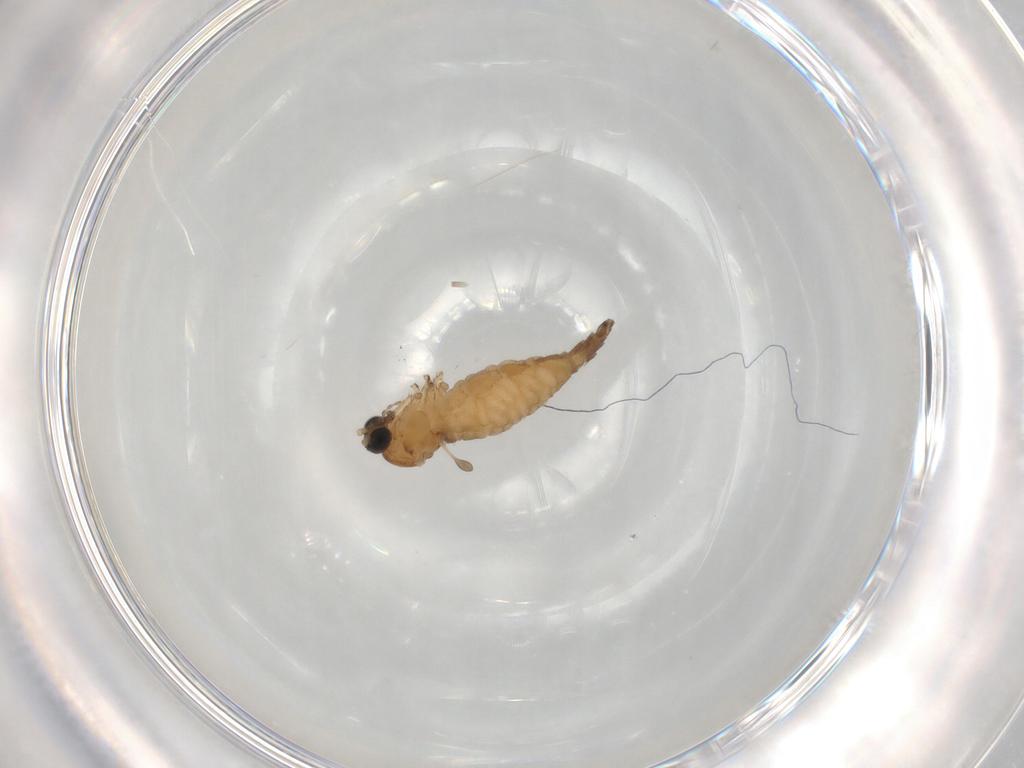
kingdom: Animalia
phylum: Arthropoda
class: Insecta
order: Diptera
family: Sciaridae
